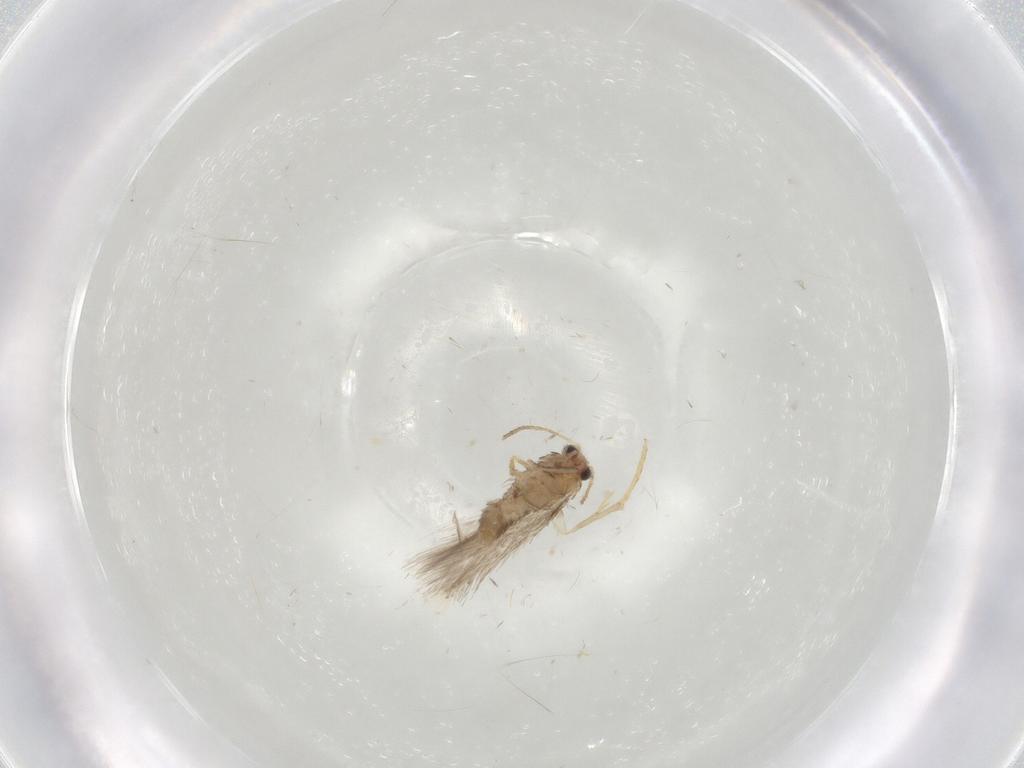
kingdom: Animalia
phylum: Arthropoda
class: Insecta
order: Lepidoptera
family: Nepticulidae
